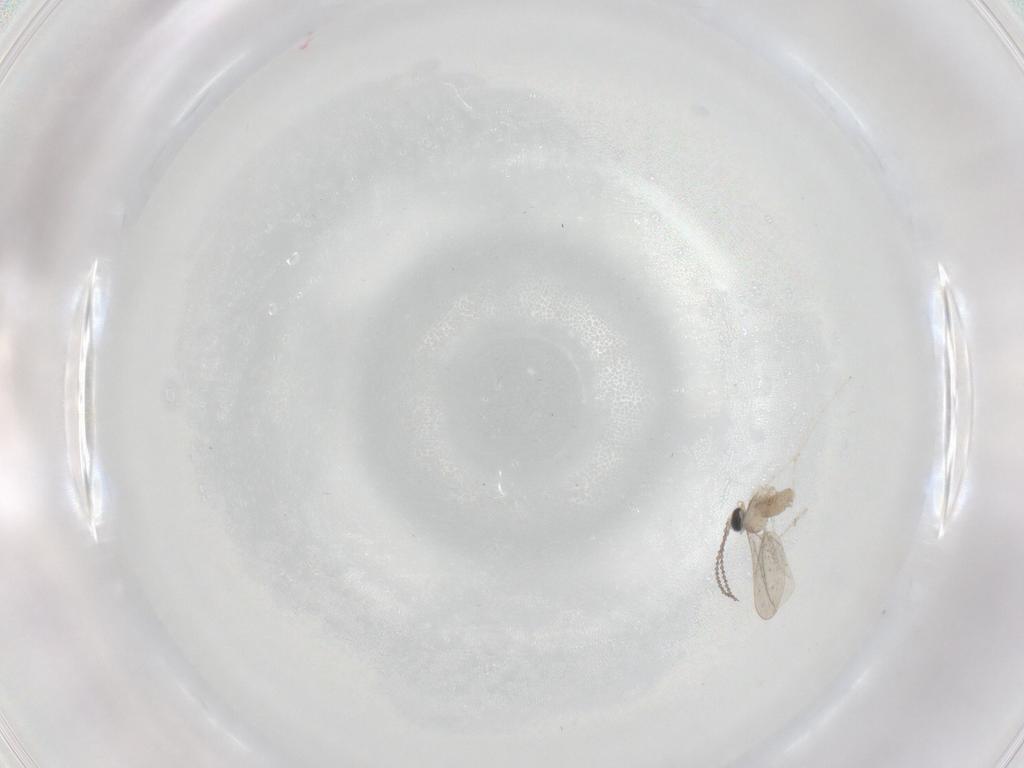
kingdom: Animalia
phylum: Arthropoda
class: Insecta
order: Diptera
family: Cecidomyiidae
